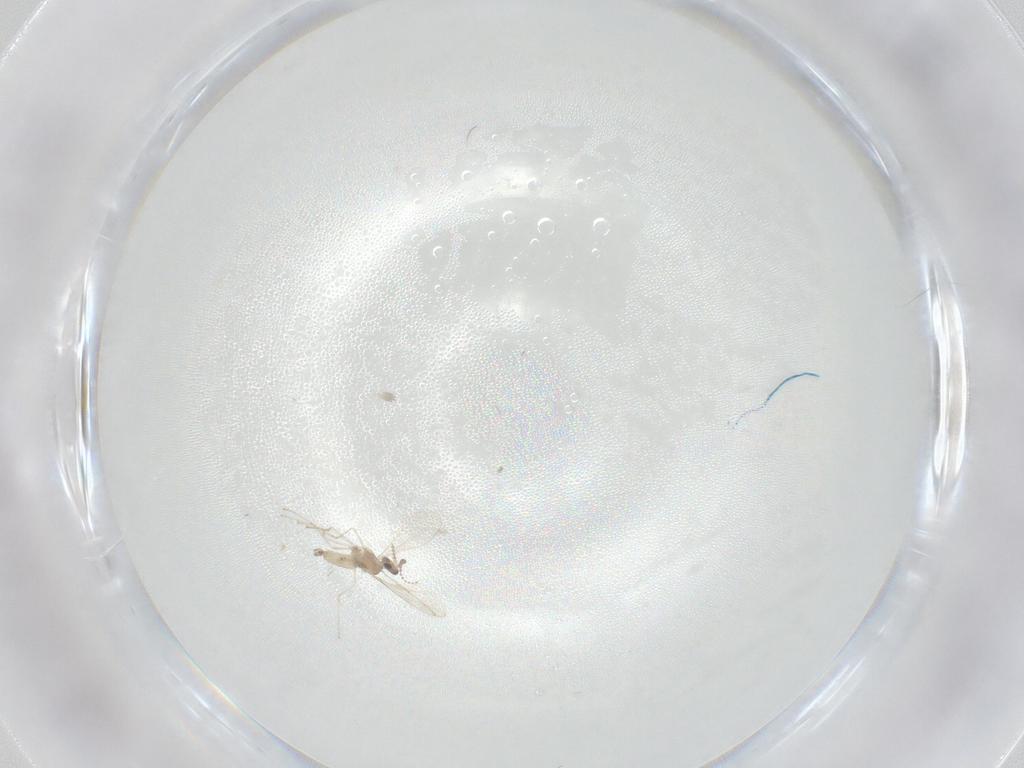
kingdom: Animalia
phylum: Arthropoda
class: Insecta
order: Diptera
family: Cecidomyiidae
